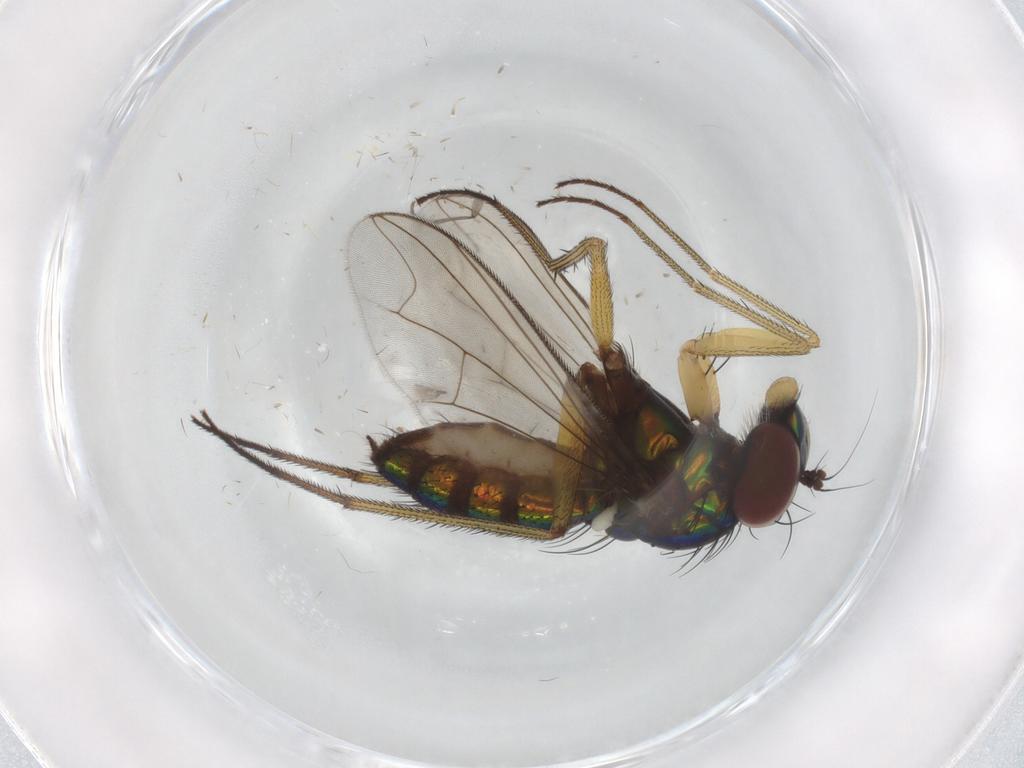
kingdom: Animalia
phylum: Arthropoda
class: Insecta
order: Diptera
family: Dolichopodidae
